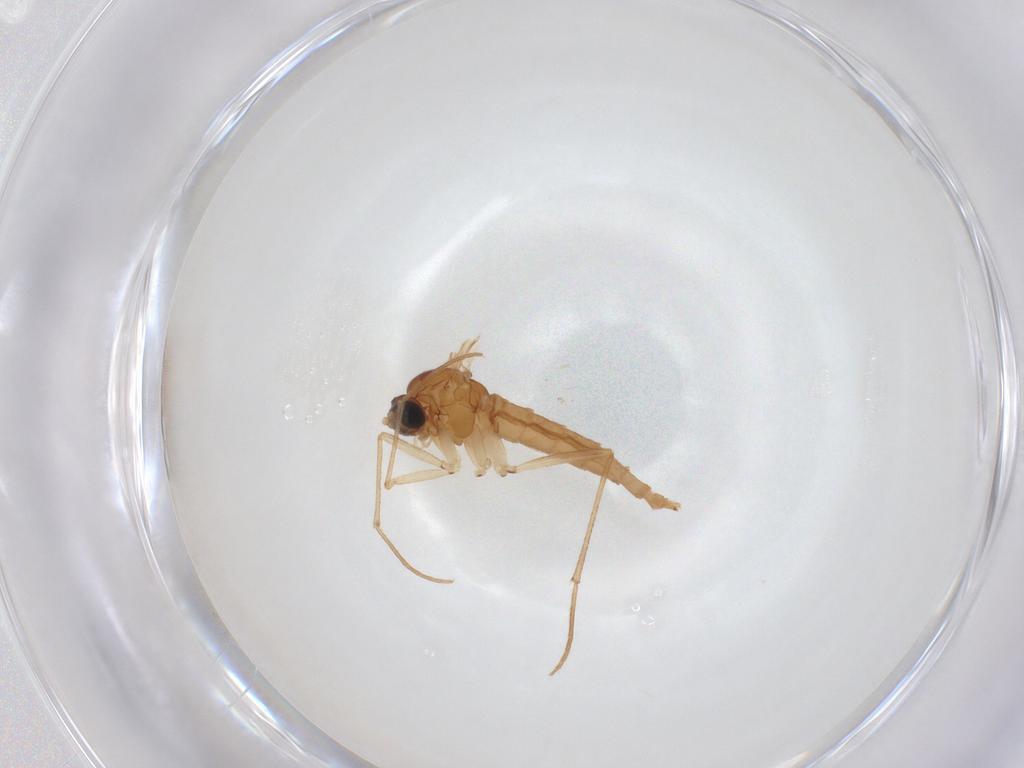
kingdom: Animalia
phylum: Arthropoda
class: Insecta
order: Diptera
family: Sciaridae
